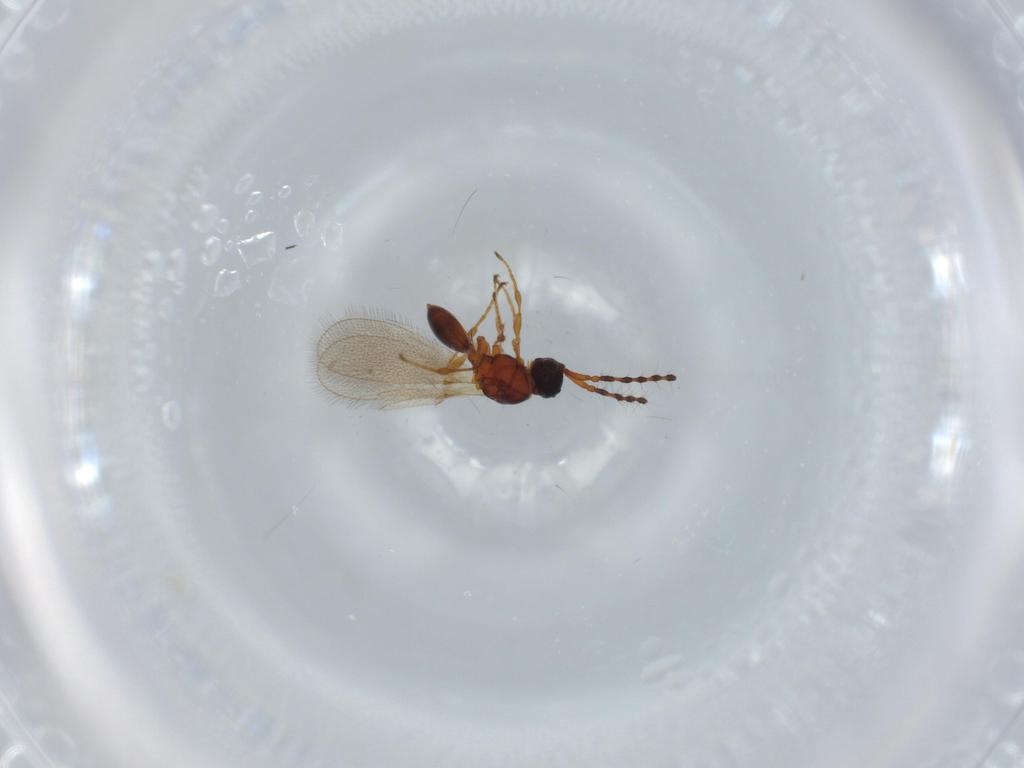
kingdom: Animalia
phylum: Arthropoda
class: Insecta
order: Hymenoptera
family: Diapriidae
